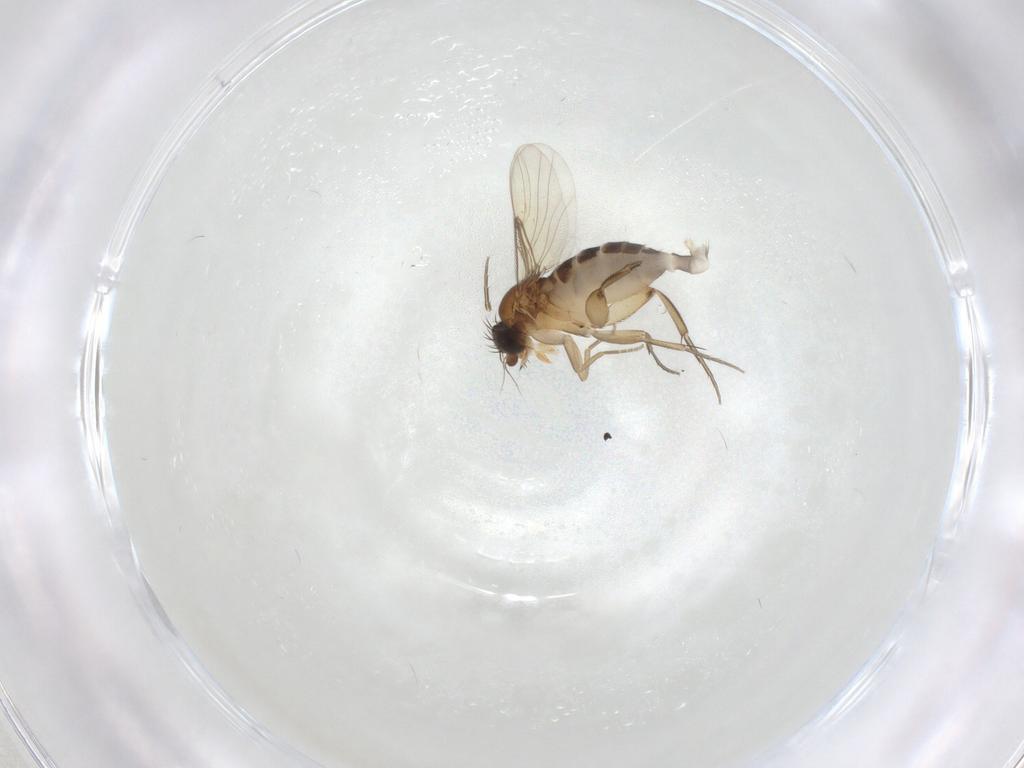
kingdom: Animalia
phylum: Arthropoda
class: Insecta
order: Diptera
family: Phoridae
